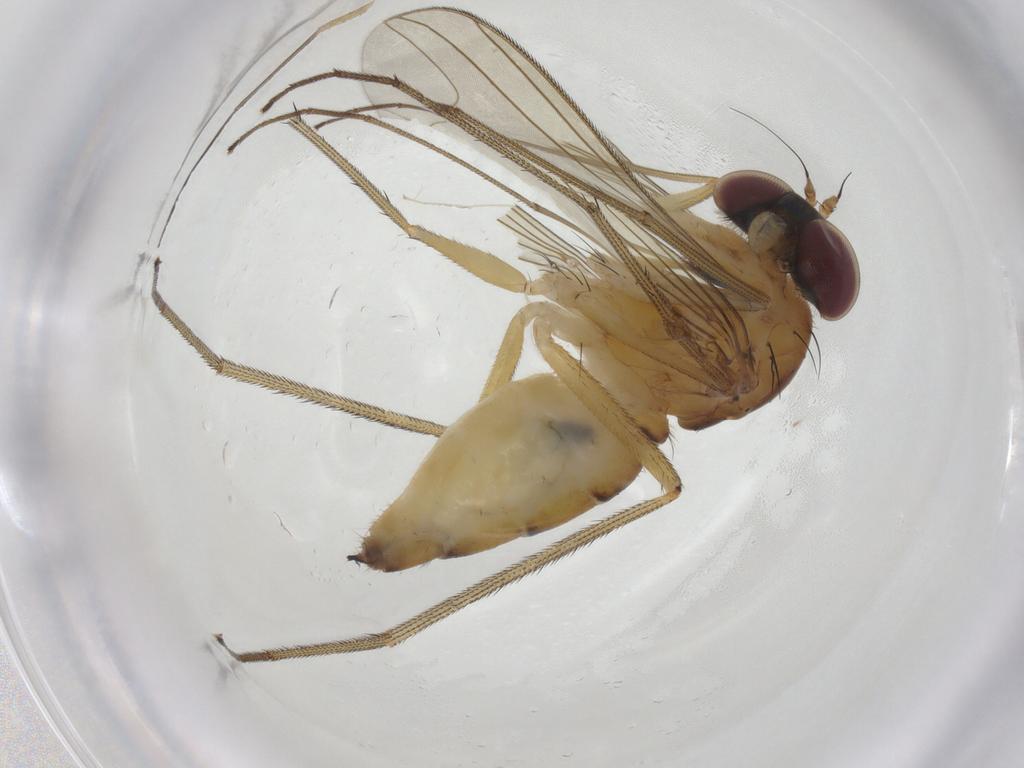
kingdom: Animalia
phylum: Arthropoda
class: Insecta
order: Diptera
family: Dolichopodidae
